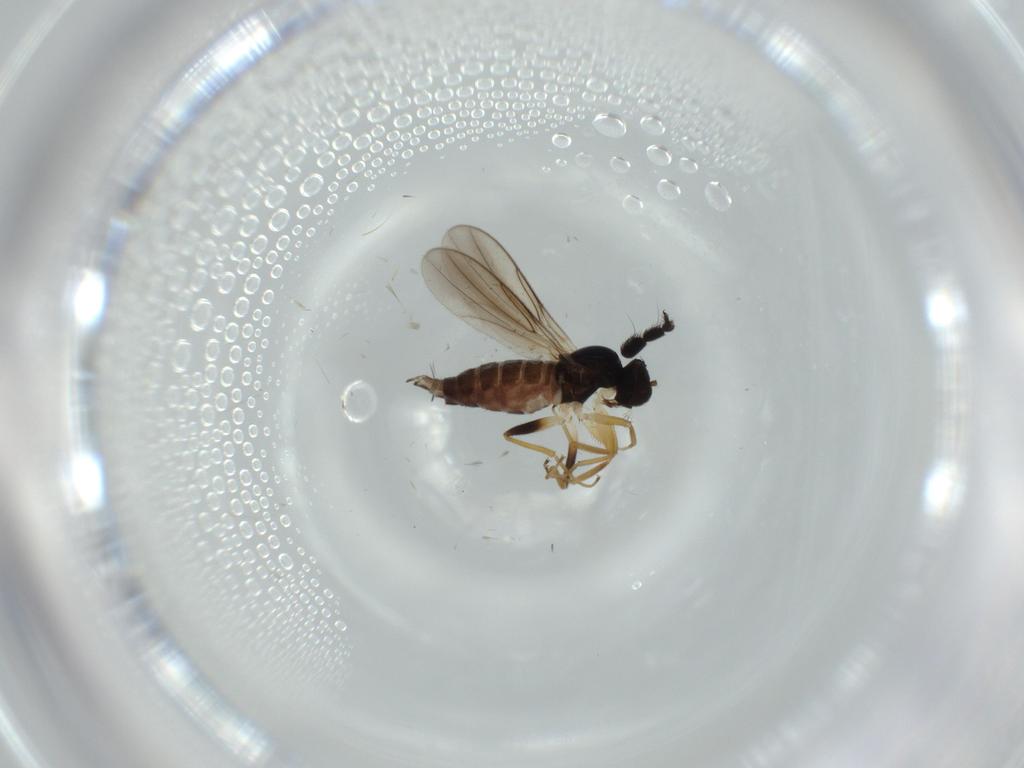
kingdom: Animalia
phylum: Arthropoda
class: Insecta
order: Diptera
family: Hybotidae
